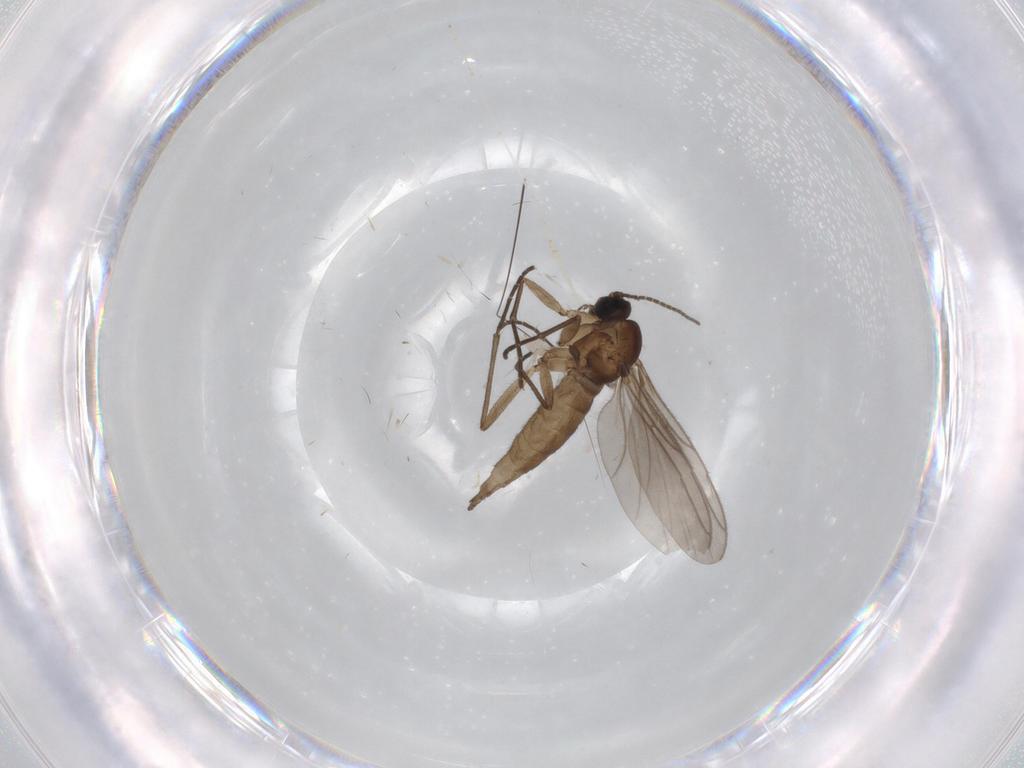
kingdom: Animalia
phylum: Arthropoda
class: Insecta
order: Diptera
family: Sciaridae
